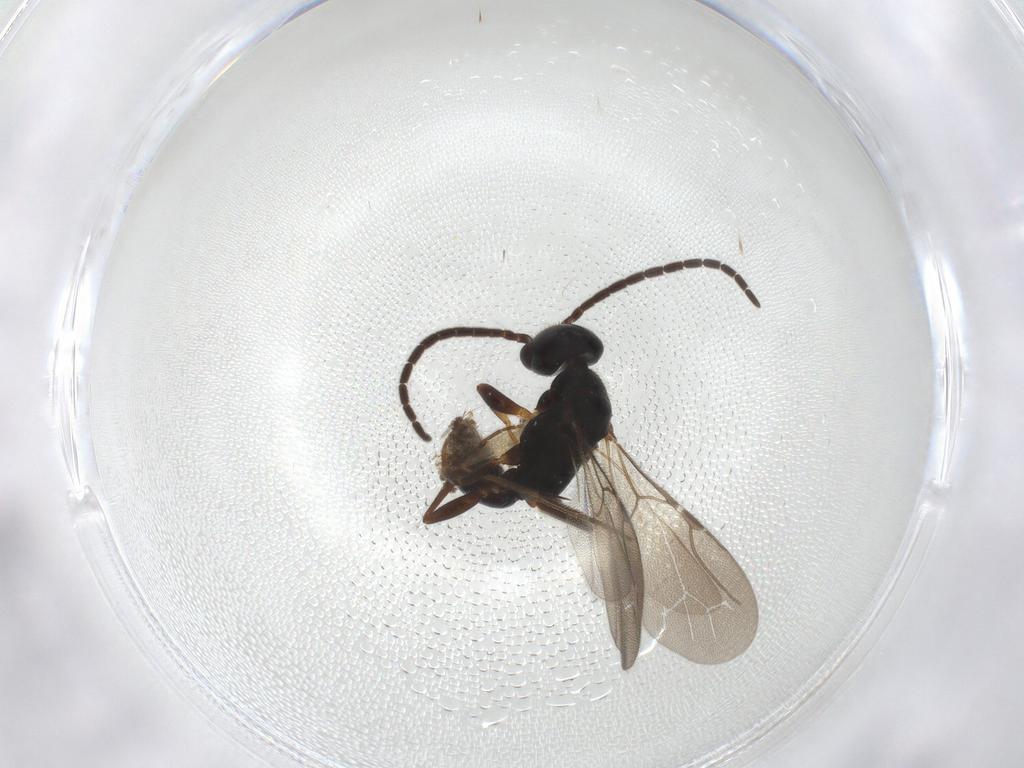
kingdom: Animalia
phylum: Arthropoda
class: Insecta
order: Hymenoptera
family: Bethylidae
